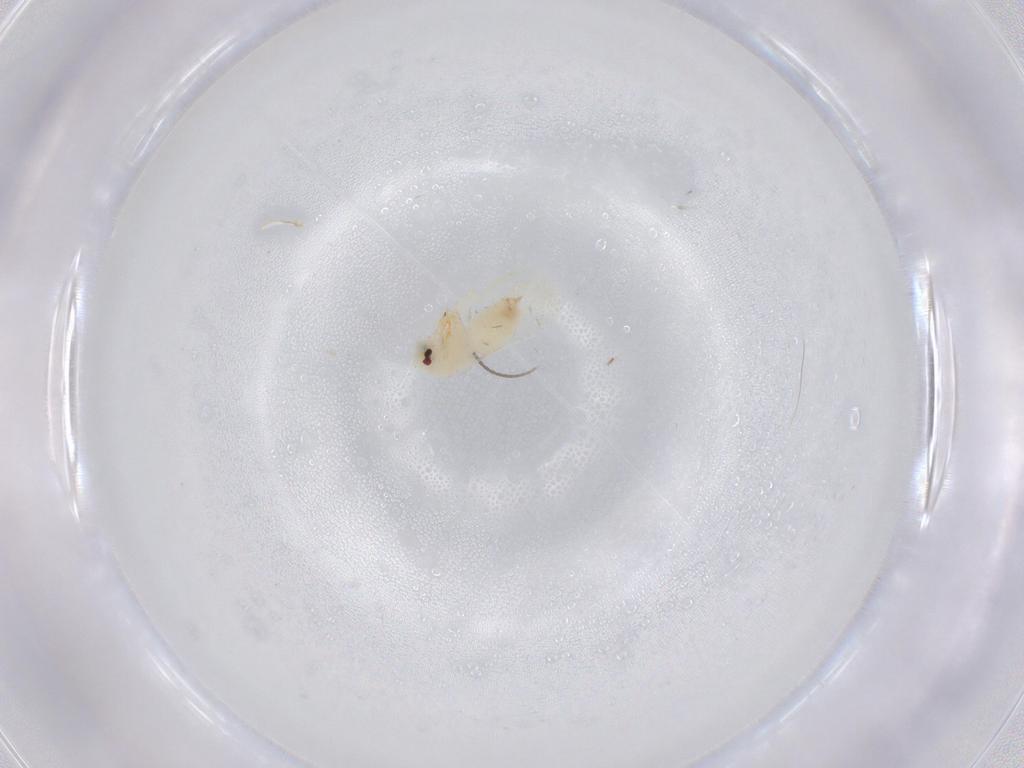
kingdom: Animalia
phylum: Arthropoda
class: Insecta
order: Hemiptera
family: Aleyrodidae
